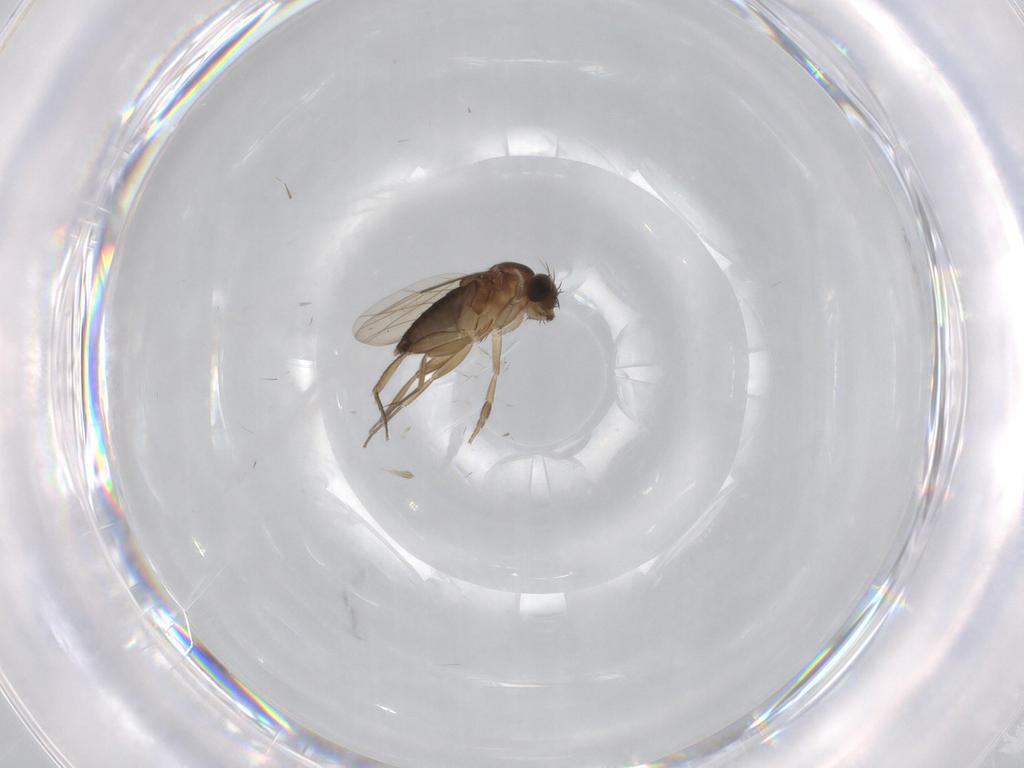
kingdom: Animalia
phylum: Arthropoda
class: Insecta
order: Diptera
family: Phoridae
